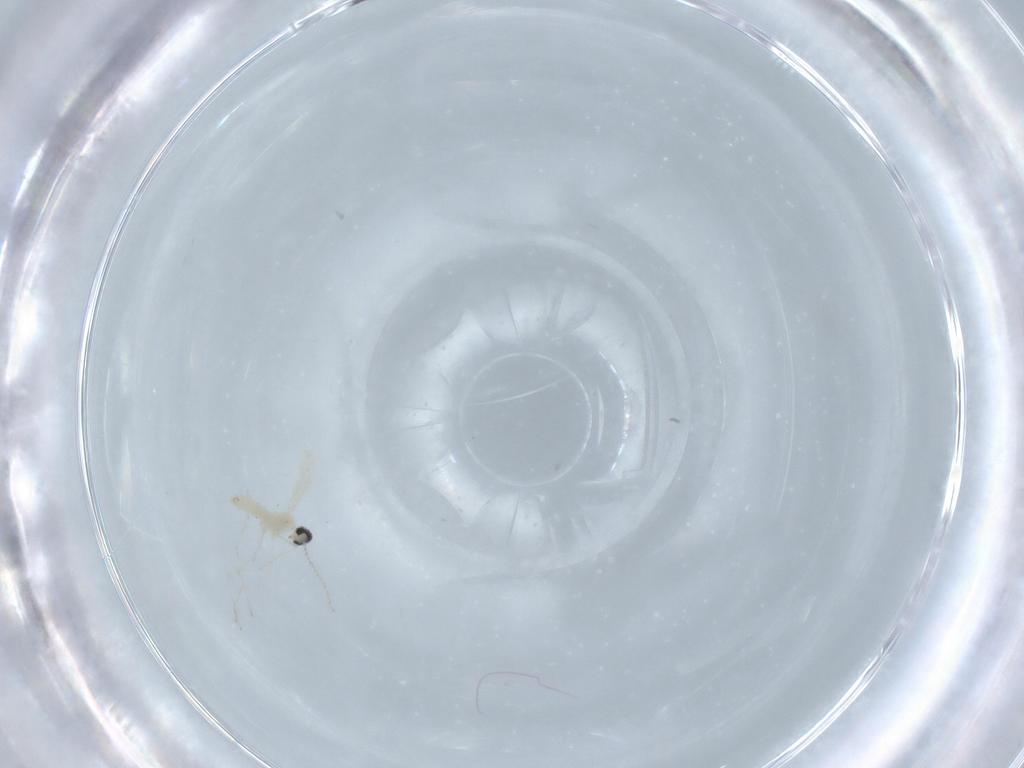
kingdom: Animalia
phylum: Arthropoda
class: Insecta
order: Diptera
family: Cecidomyiidae
